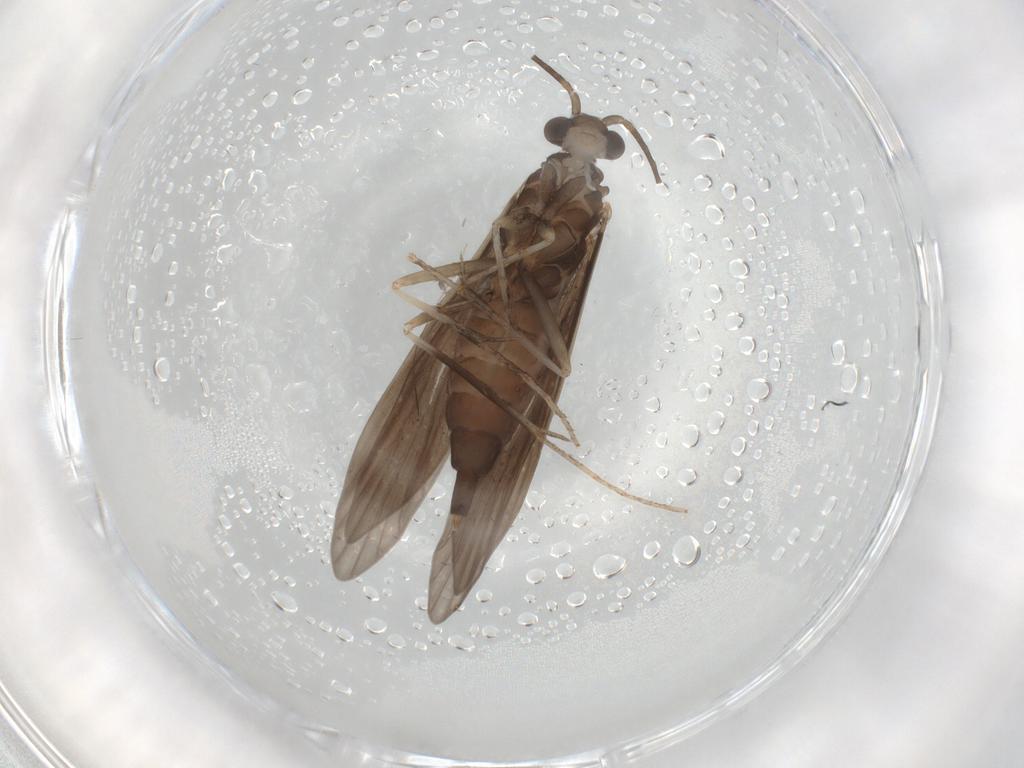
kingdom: Animalia
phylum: Arthropoda
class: Insecta
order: Trichoptera
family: Xiphocentronidae
